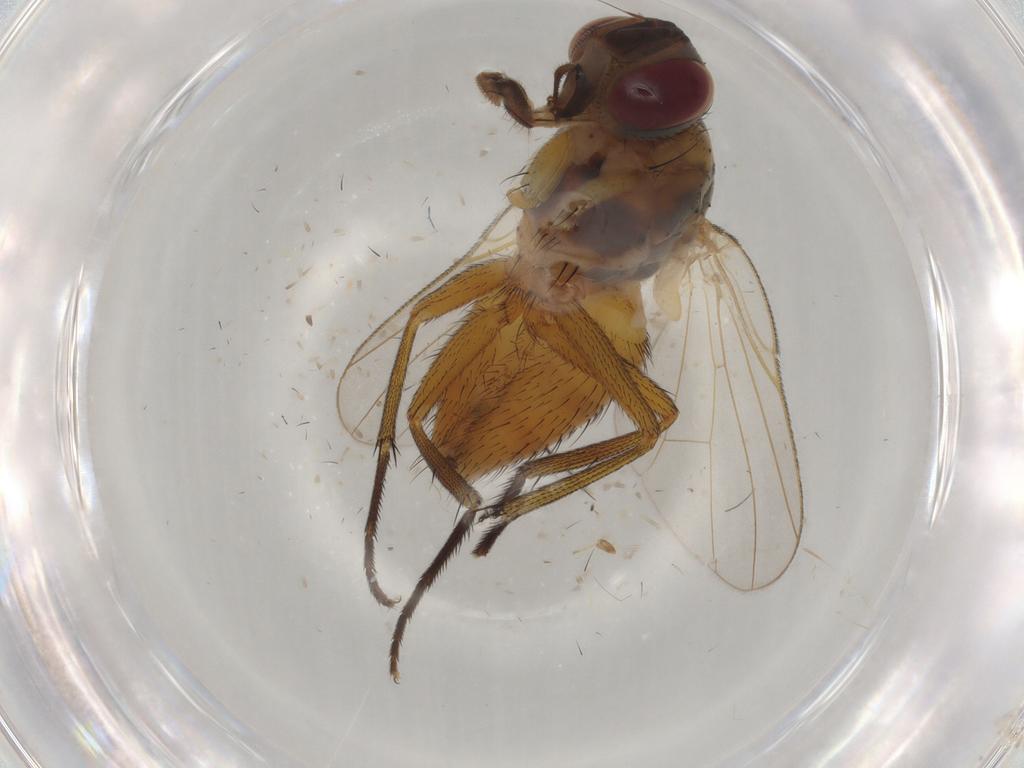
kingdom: Animalia
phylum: Arthropoda
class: Insecta
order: Diptera
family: Muscidae
